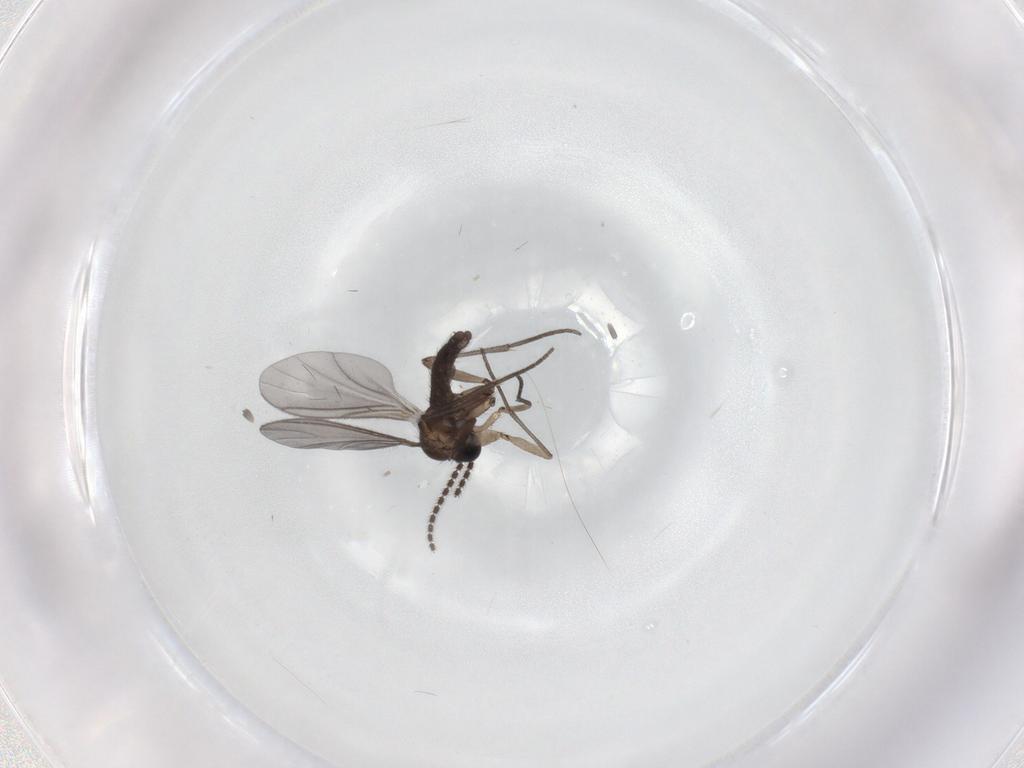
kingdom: Animalia
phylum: Arthropoda
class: Insecta
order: Diptera
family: Sciaridae
